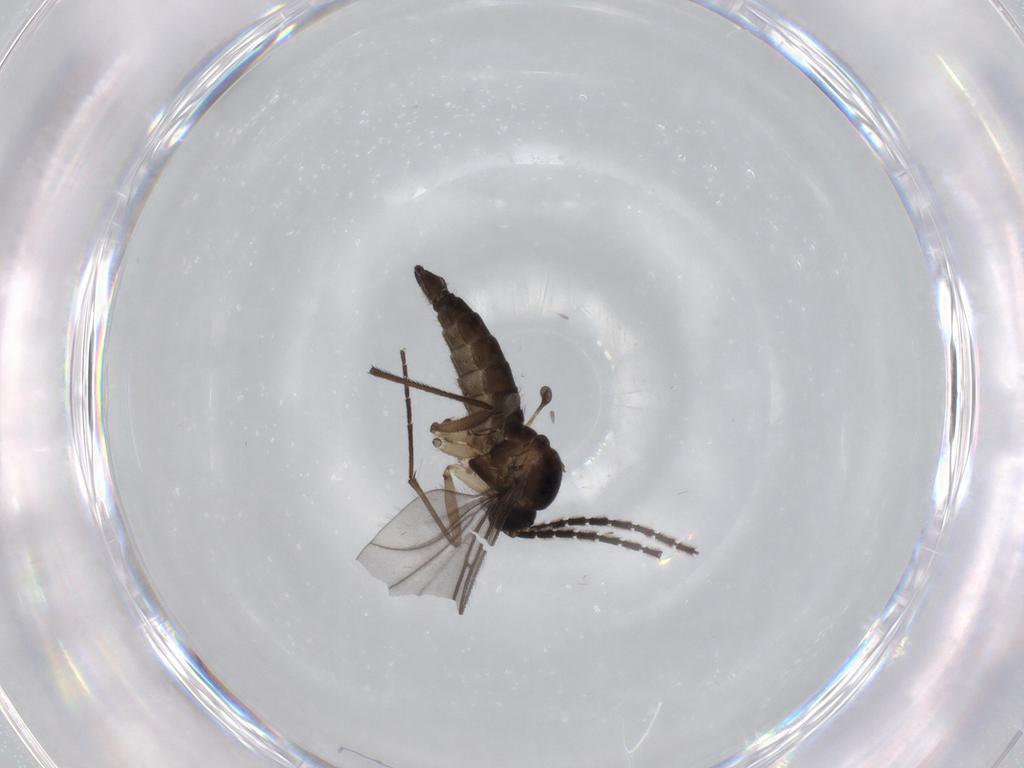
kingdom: Animalia
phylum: Arthropoda
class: Insecta
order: Diptera
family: Sciaridae
